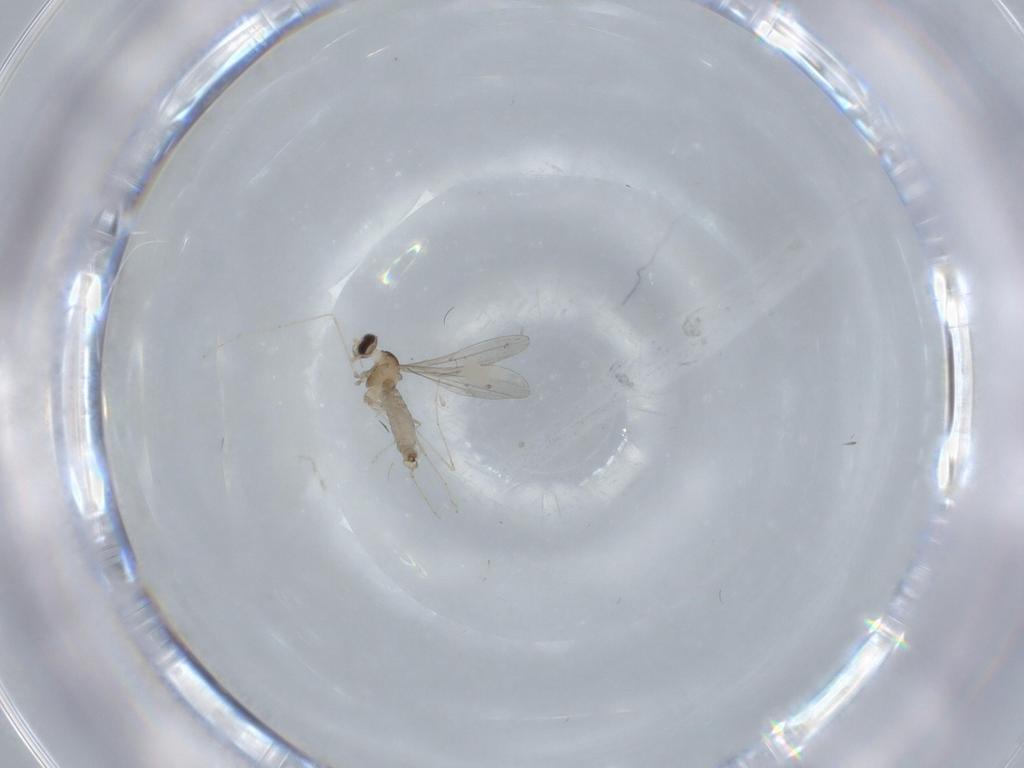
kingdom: Animalia
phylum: Arthropoda
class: Insecta
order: Diptera
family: Cecidomyiidae
